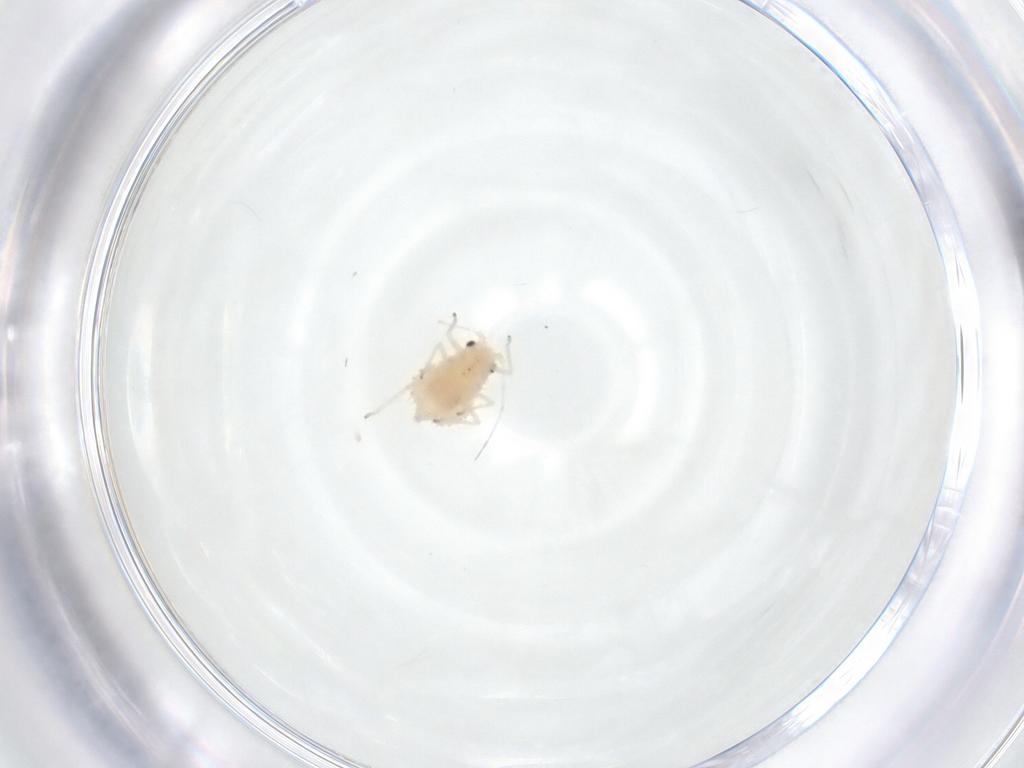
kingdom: Animalia
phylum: Arthropoda
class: Insecta
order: Hemiptera
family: Aphididae
